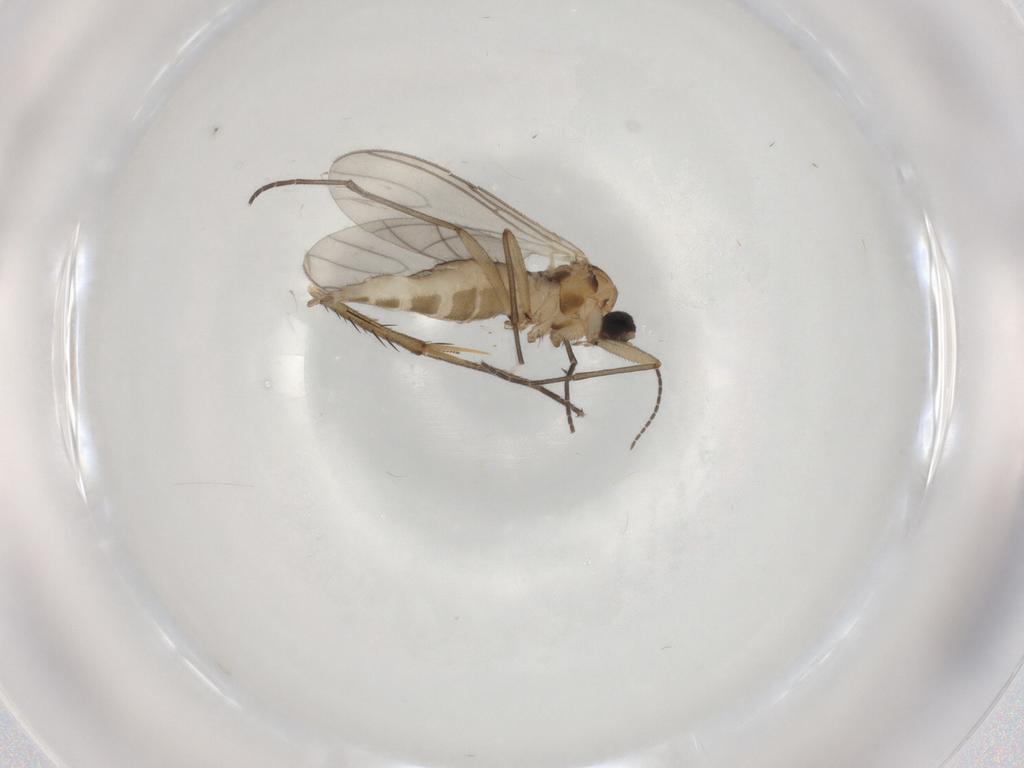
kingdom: Animalia
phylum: Arthropoda
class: Insecta
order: Diptera
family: Sciaridae
